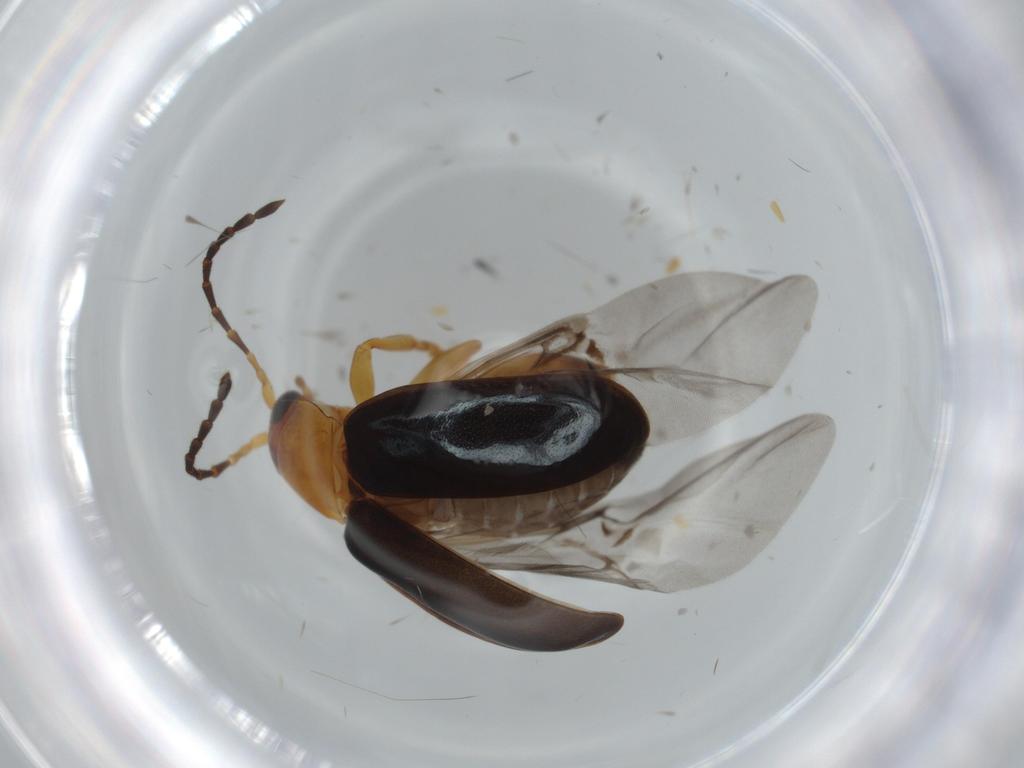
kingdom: Animalia
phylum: Arthropoda
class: Insecta
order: Coleoptera
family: Chrysomelidae
